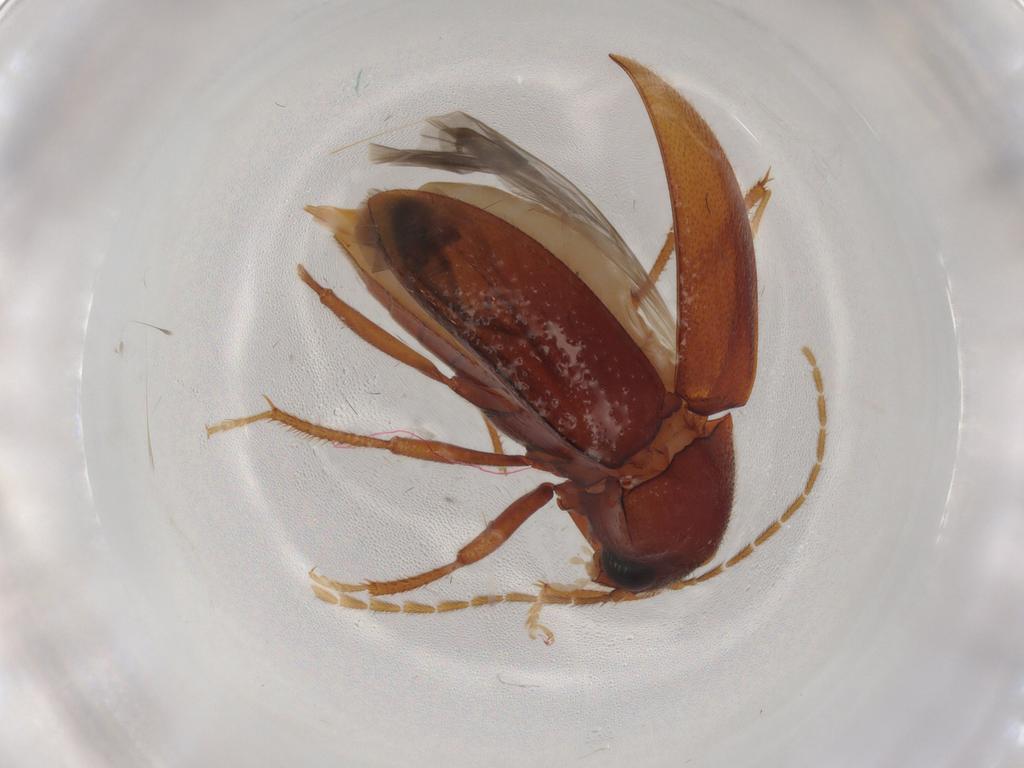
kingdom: Animalia
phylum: Arthropoda
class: Insecta
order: Coleoptera
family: Ptilodactylidae
